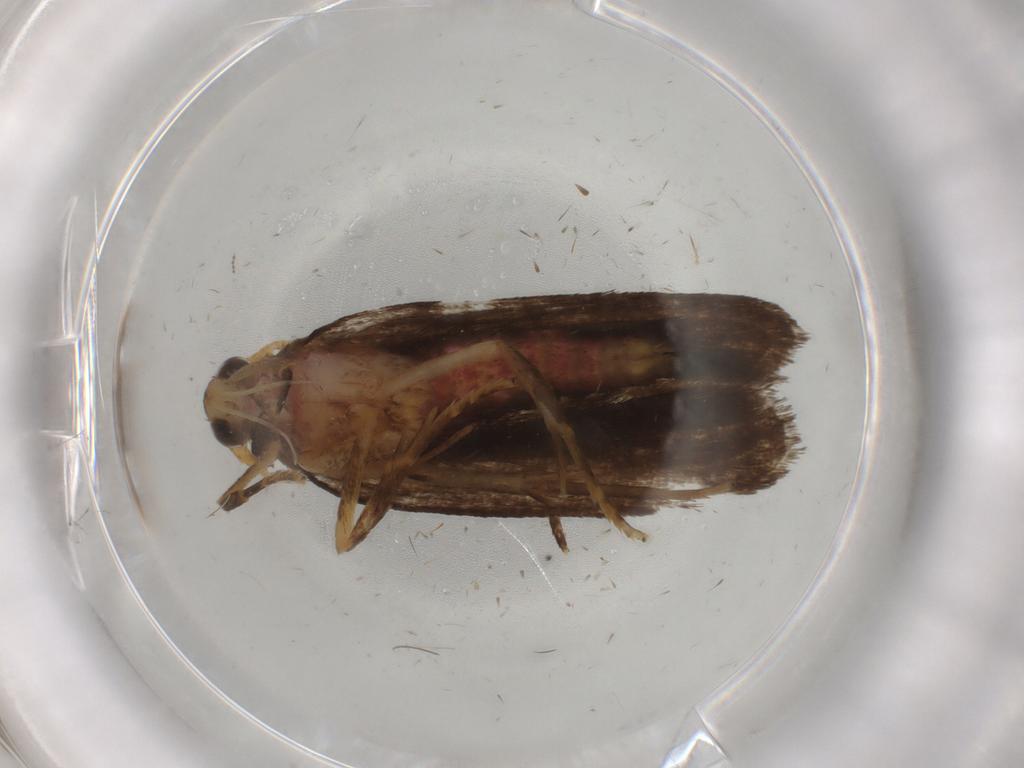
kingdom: Animalia
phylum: Arthropoda
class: Insecta
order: Lepidoptera
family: Autostichidae
